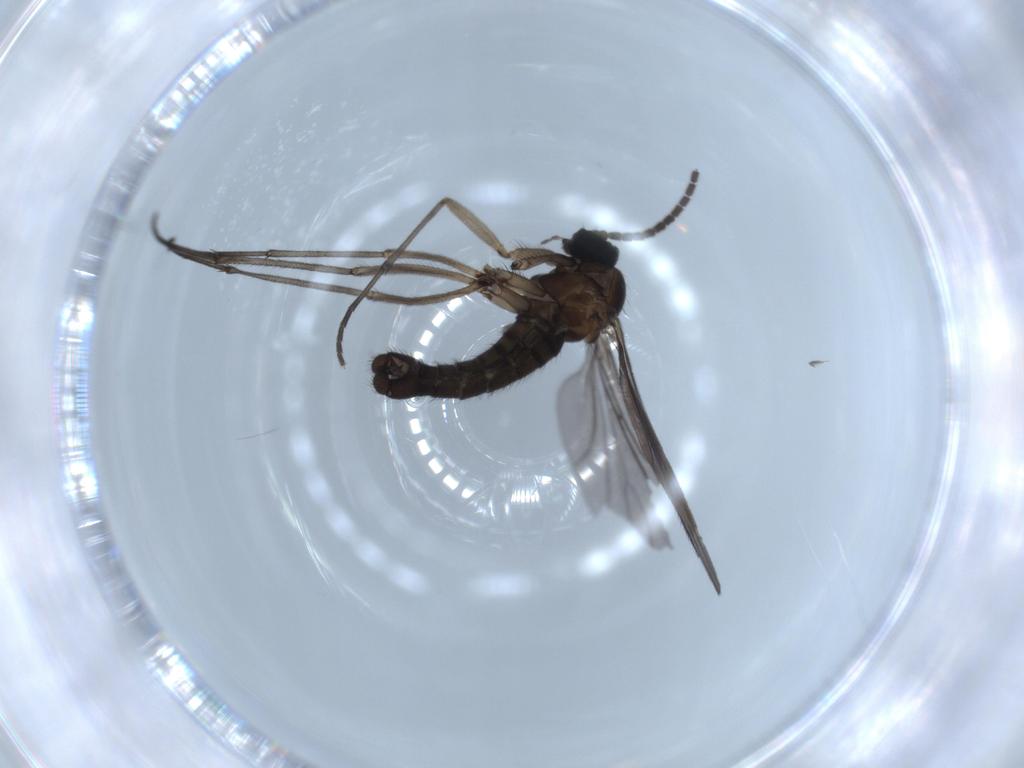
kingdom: Animalia
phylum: Arthropoda
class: Insecta
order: Diptera
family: Sciaridae
